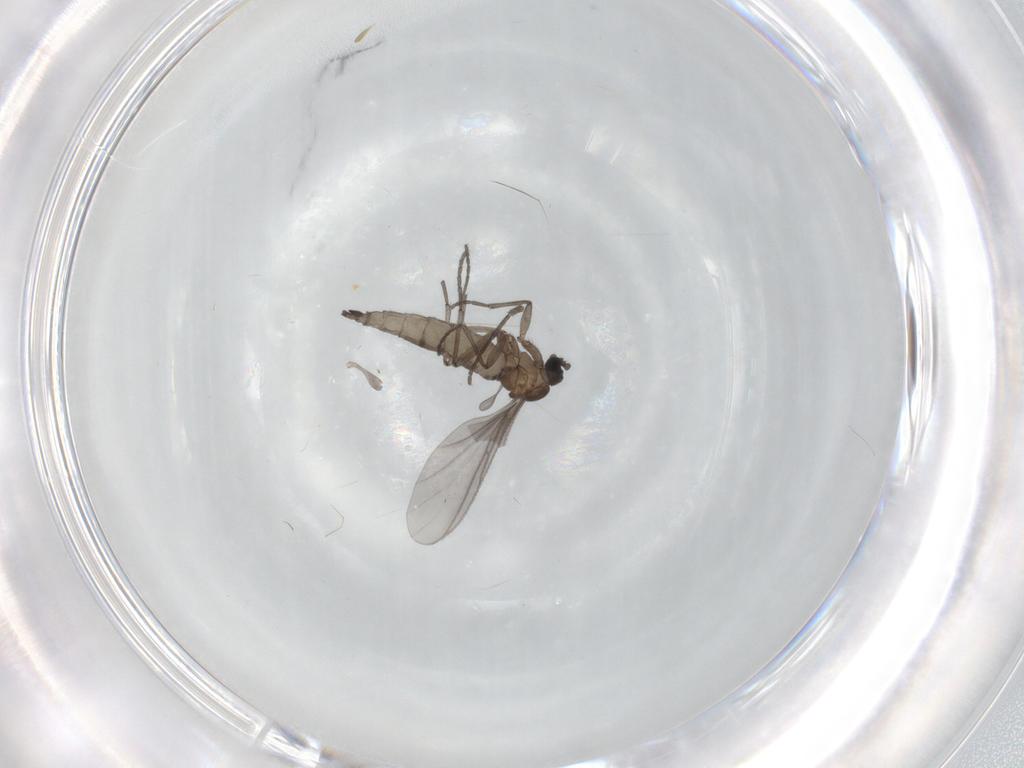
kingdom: Animalia
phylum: Arthropoda
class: Insecta
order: Diptera
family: Sciaridae
